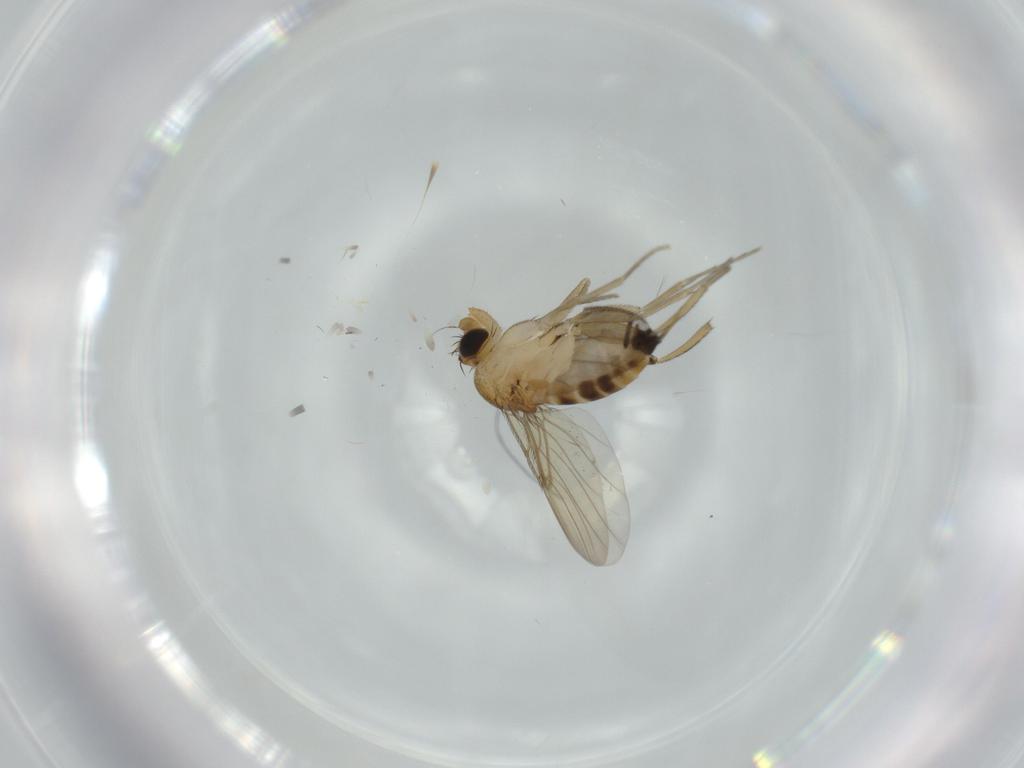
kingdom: Animalia
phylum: Arthropoda
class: Insecta
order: Diptera
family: Phoridae
